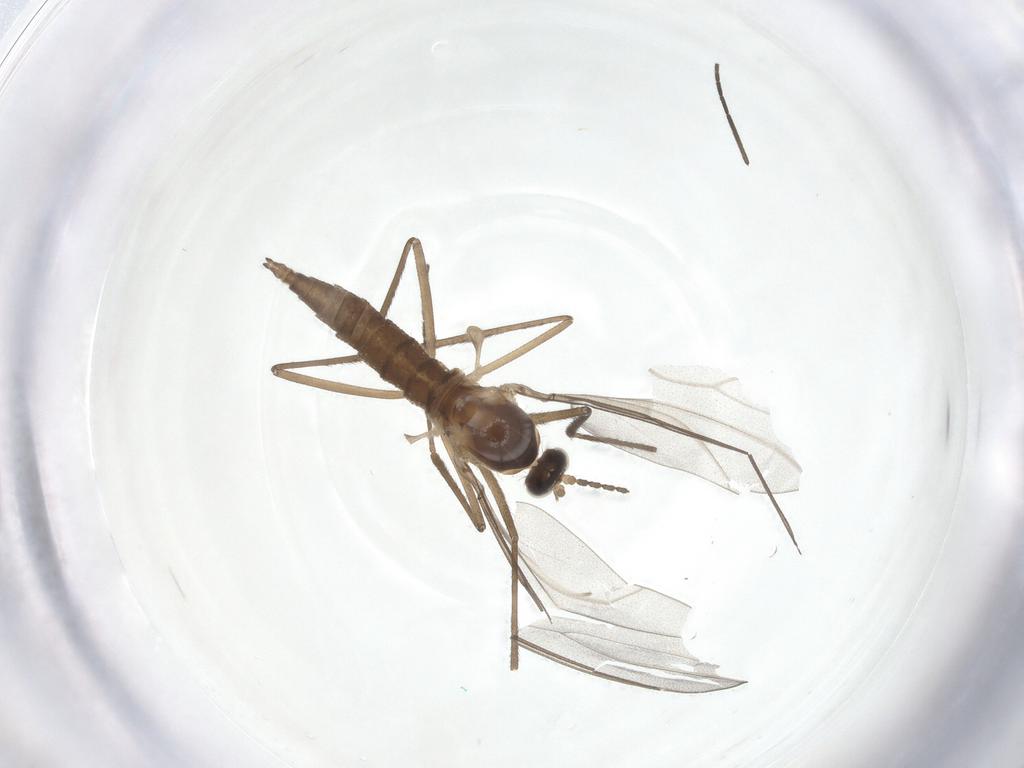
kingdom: Animalia
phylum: Arthropoda
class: Insecta
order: Diptera
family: Cecidomyiidae
